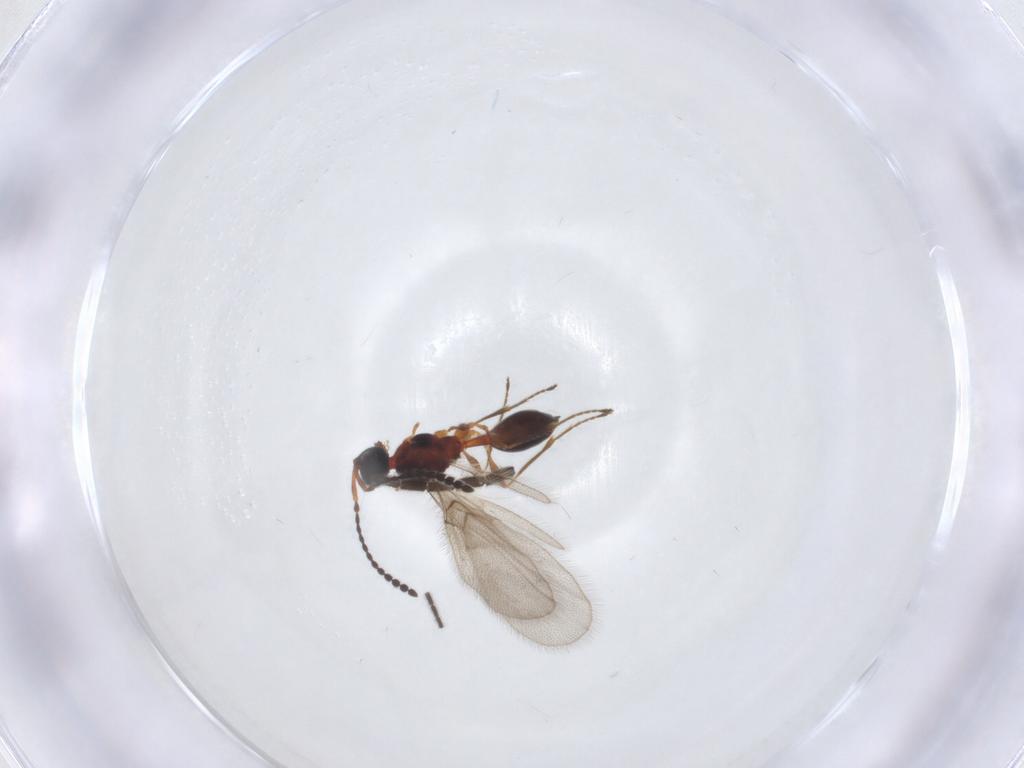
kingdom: Animalia
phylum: Arthropoda
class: Insecta
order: Hymenoptera
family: Diapriidae
